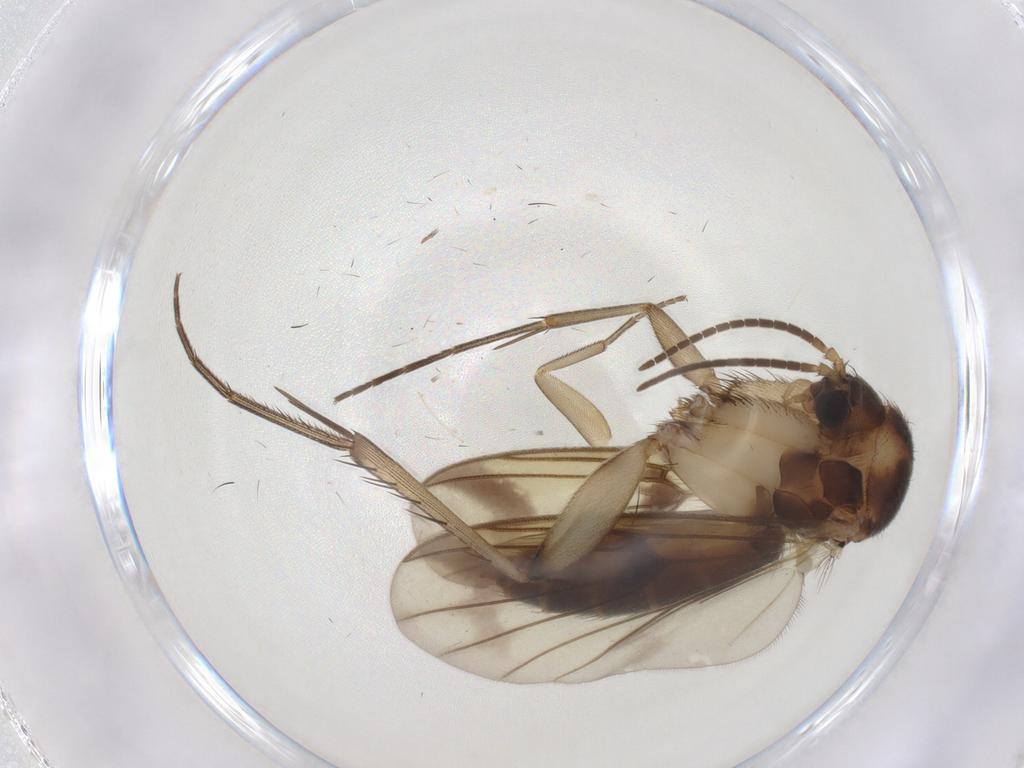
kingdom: Animalia
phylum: Arthropoda
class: Insecta
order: Diptera
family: Mycetophilidae
